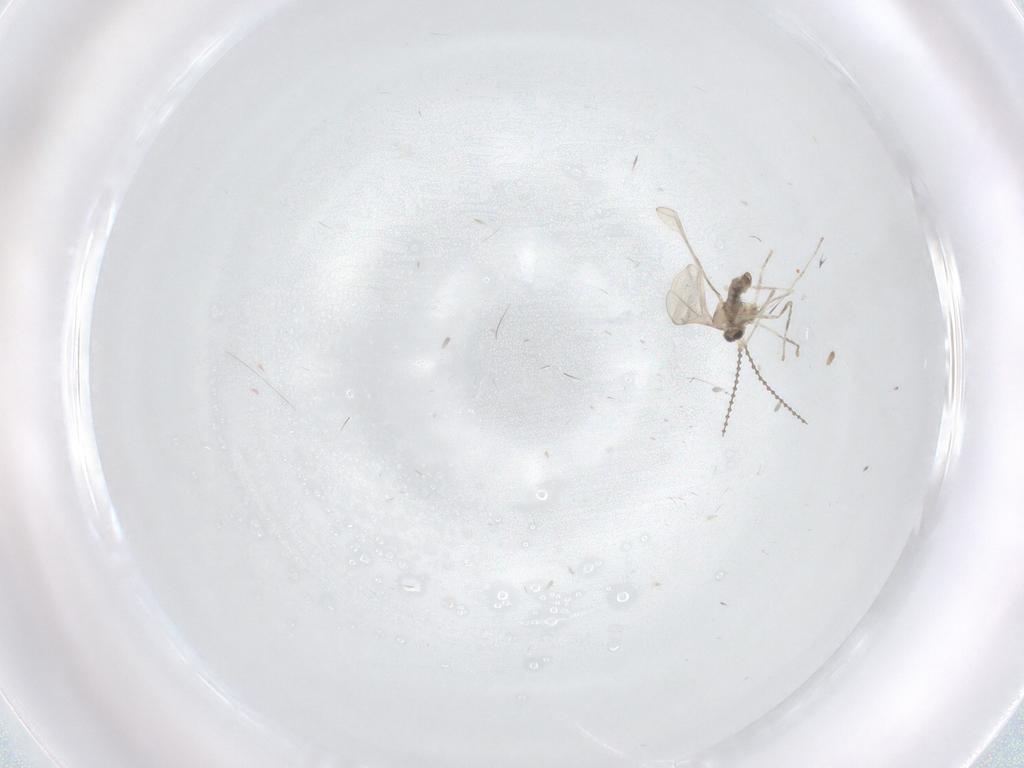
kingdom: Animalia
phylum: Arthropoda
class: Insecta
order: Diptera
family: Cecidomyiidae
